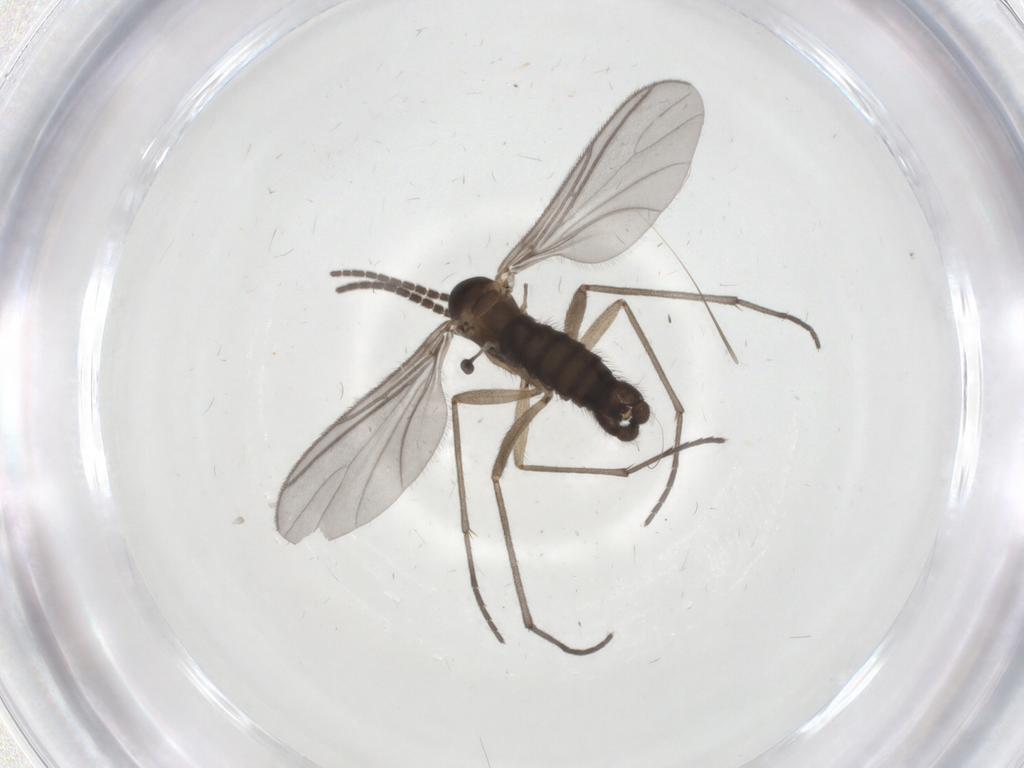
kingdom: Animalia
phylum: Arthropoda
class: Insecta
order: Diptera
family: Sciaridae
